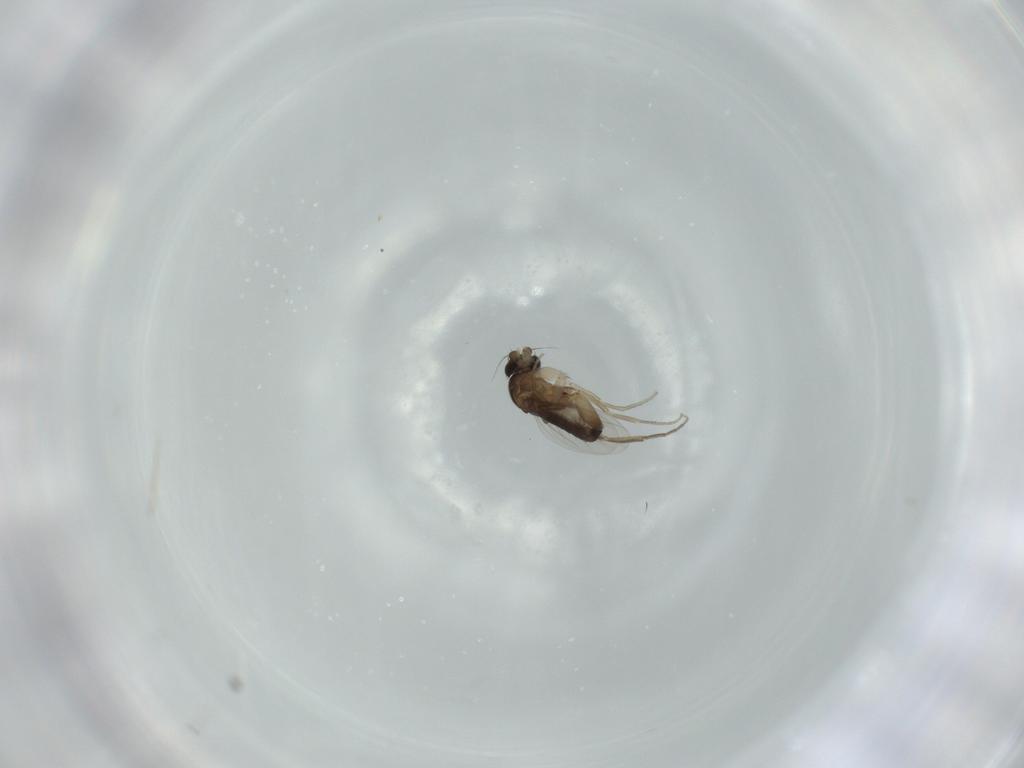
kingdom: Animalia
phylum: Arthropoda
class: Insecta
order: Diptera
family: Phoridae
